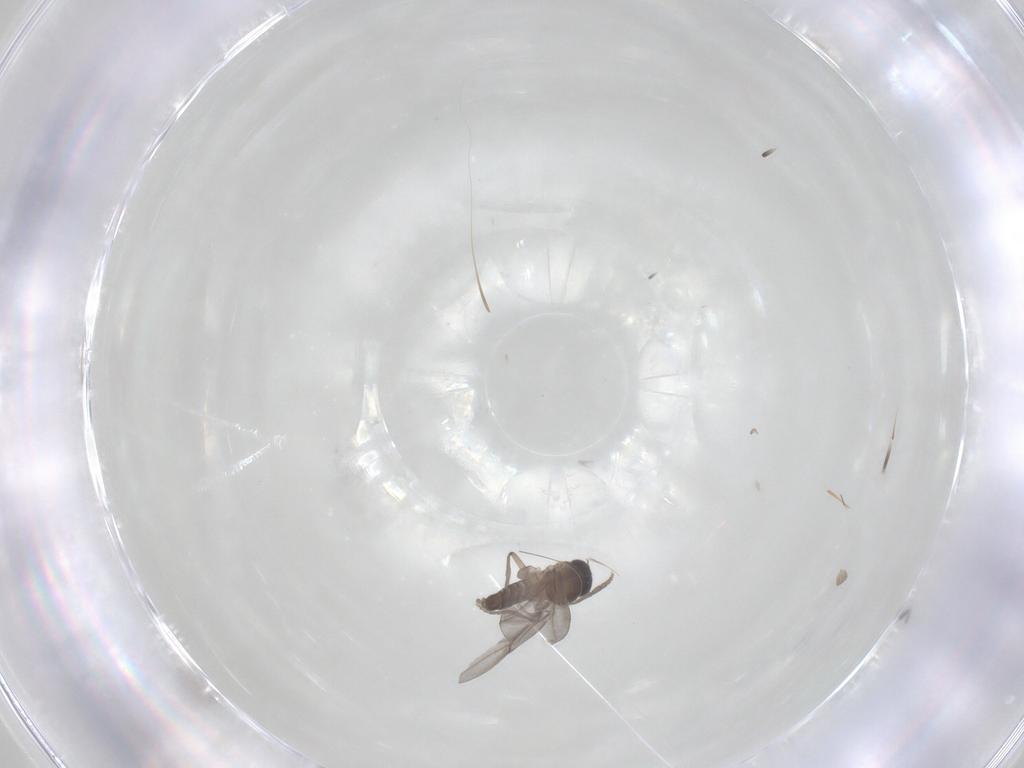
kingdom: Animalia
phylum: Arthropoda
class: Insecta
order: Diptera
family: Phoridae
